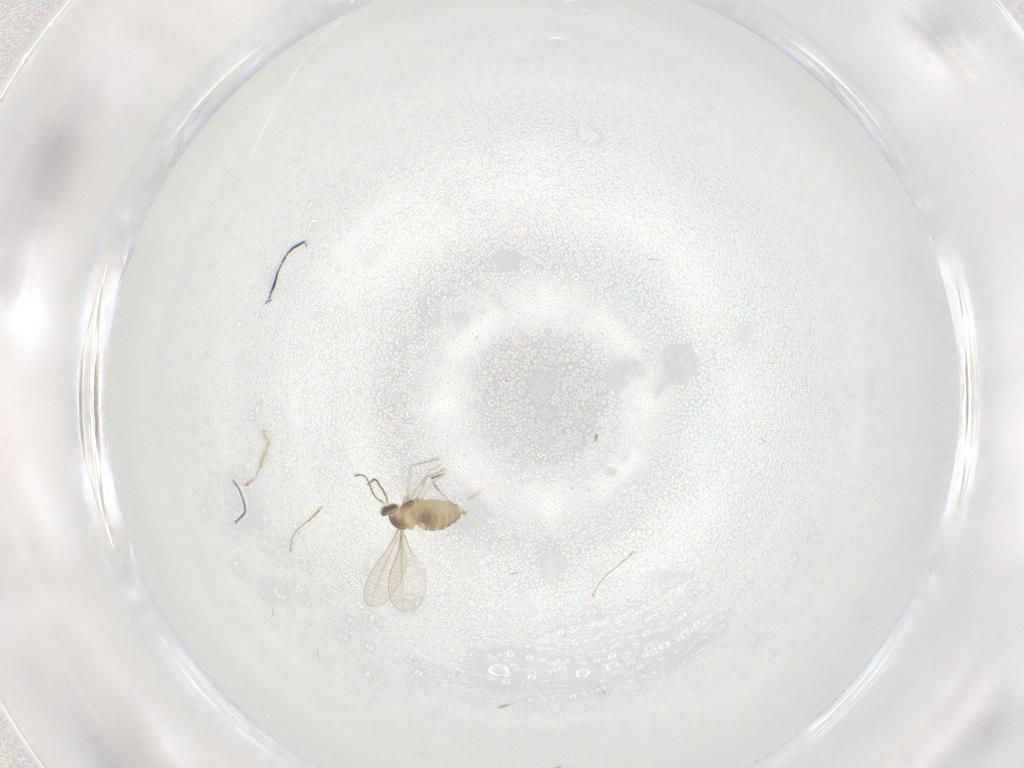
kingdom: Animalia
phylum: Arthropoda
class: Insecta
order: Diptera
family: Cecidomyiidae
